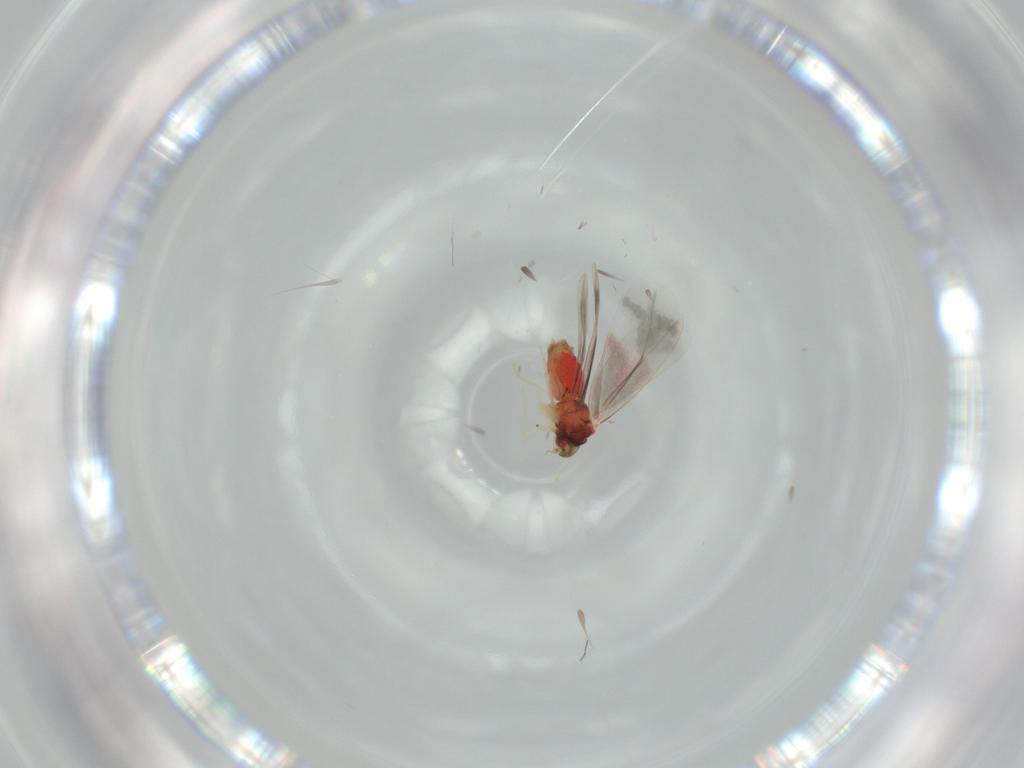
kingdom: Animalia
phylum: Arthropoda
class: Insecta
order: Hemiptera
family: Aleyrodidae
